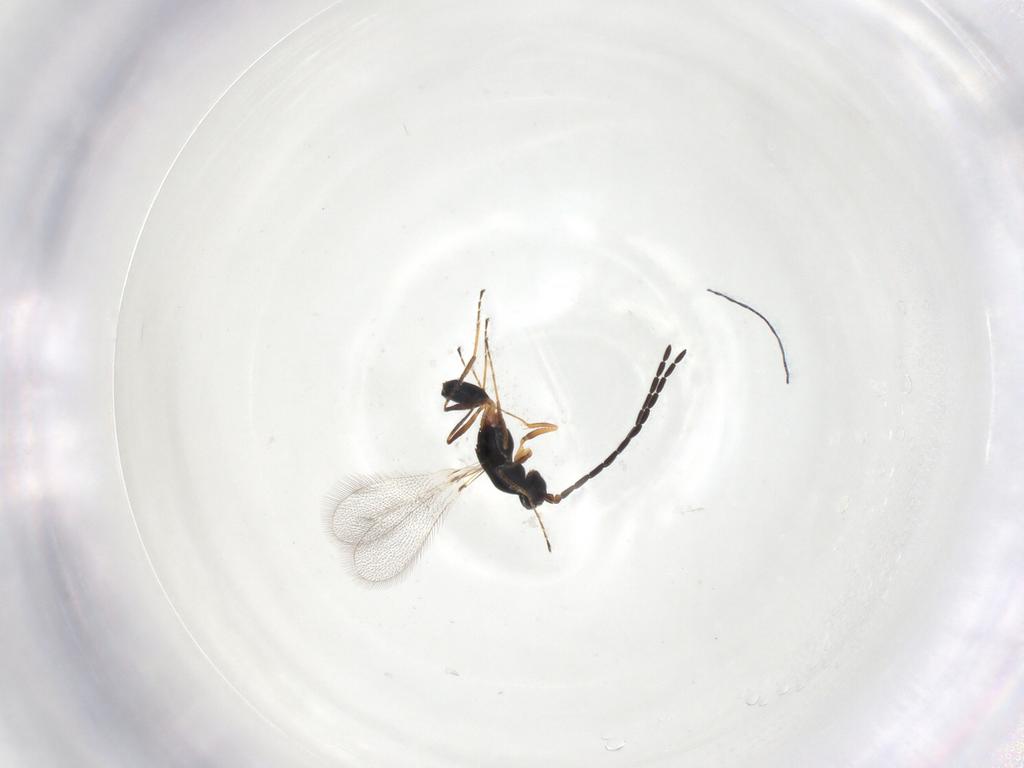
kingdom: Animalia
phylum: Arthropoda
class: Insecta
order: Hymenoptera
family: Mymaridae
